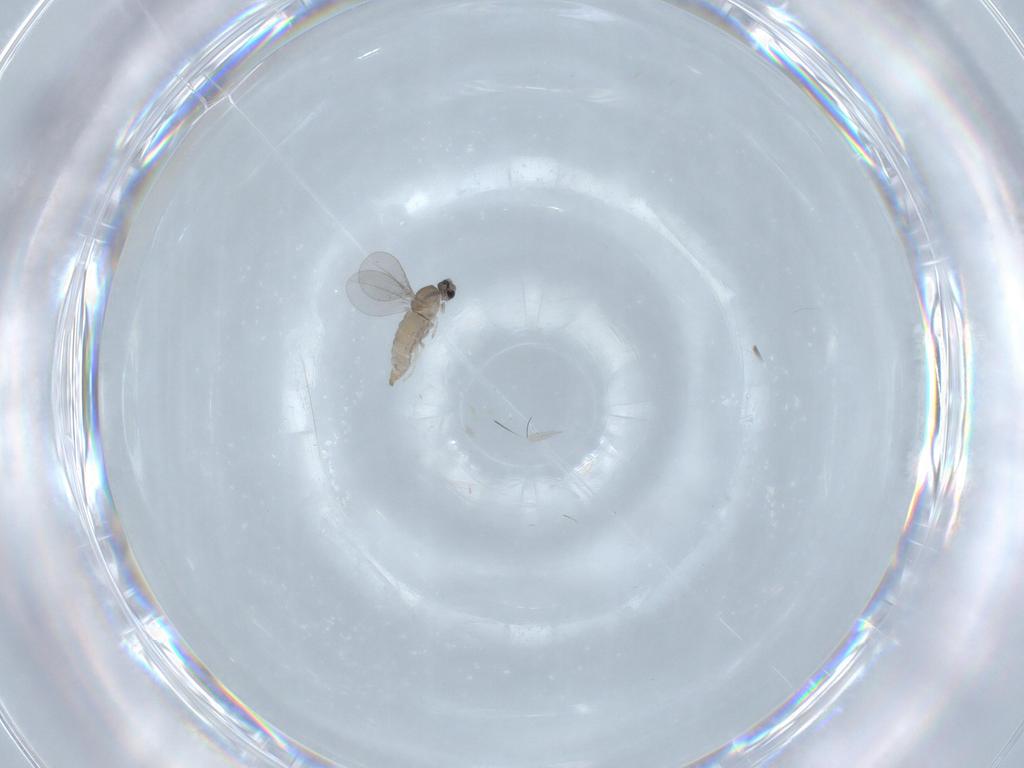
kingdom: Animalia
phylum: Arthropoda
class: Insecta
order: Diptera
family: Cecidomyiidae
